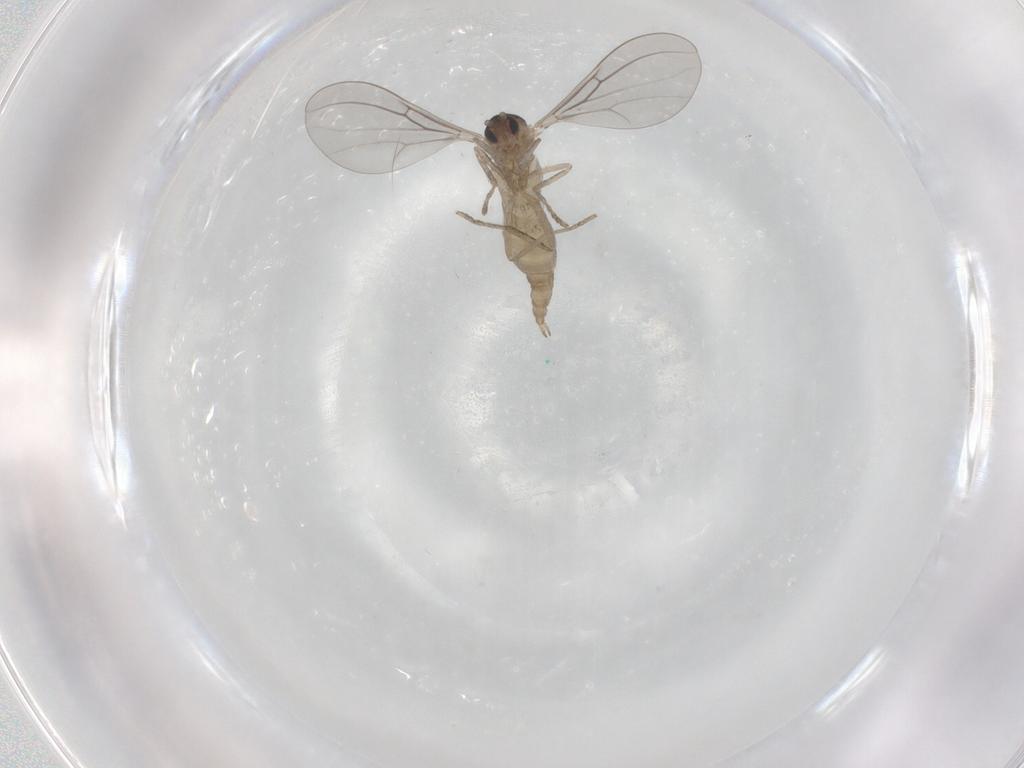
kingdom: Animalia
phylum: Arthropoda
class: Insecta
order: Diptera
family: Cecidomyiidae
